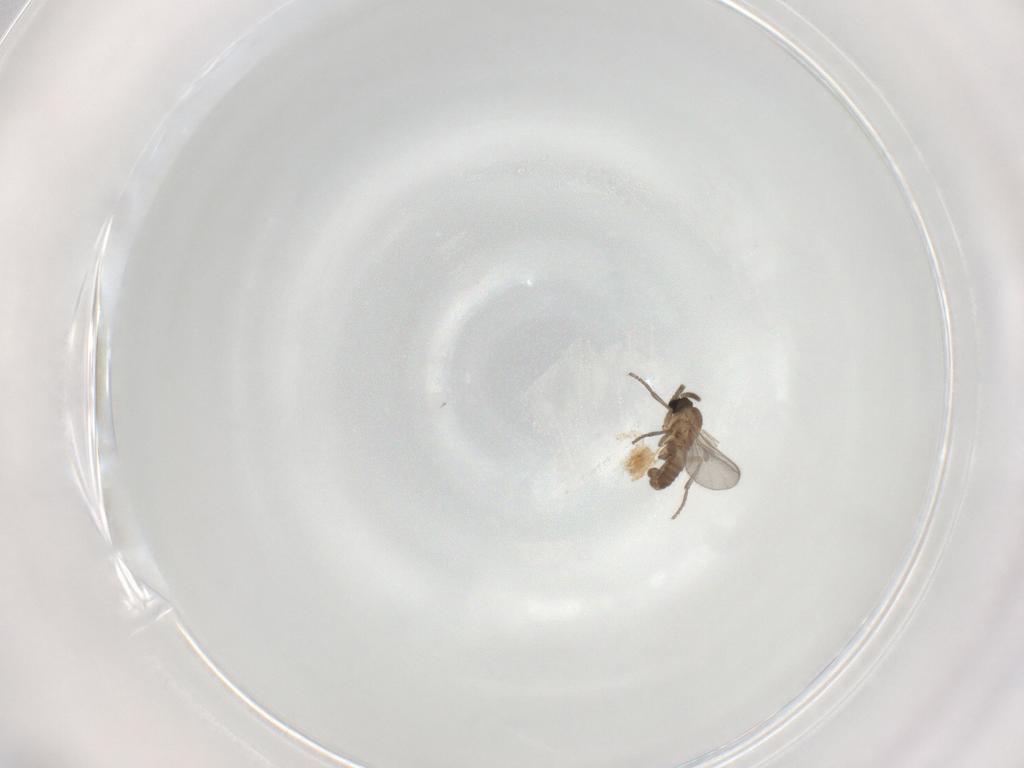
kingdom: Animalia
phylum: Arthropoda
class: Insecta
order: Diptera
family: Sciaridae
